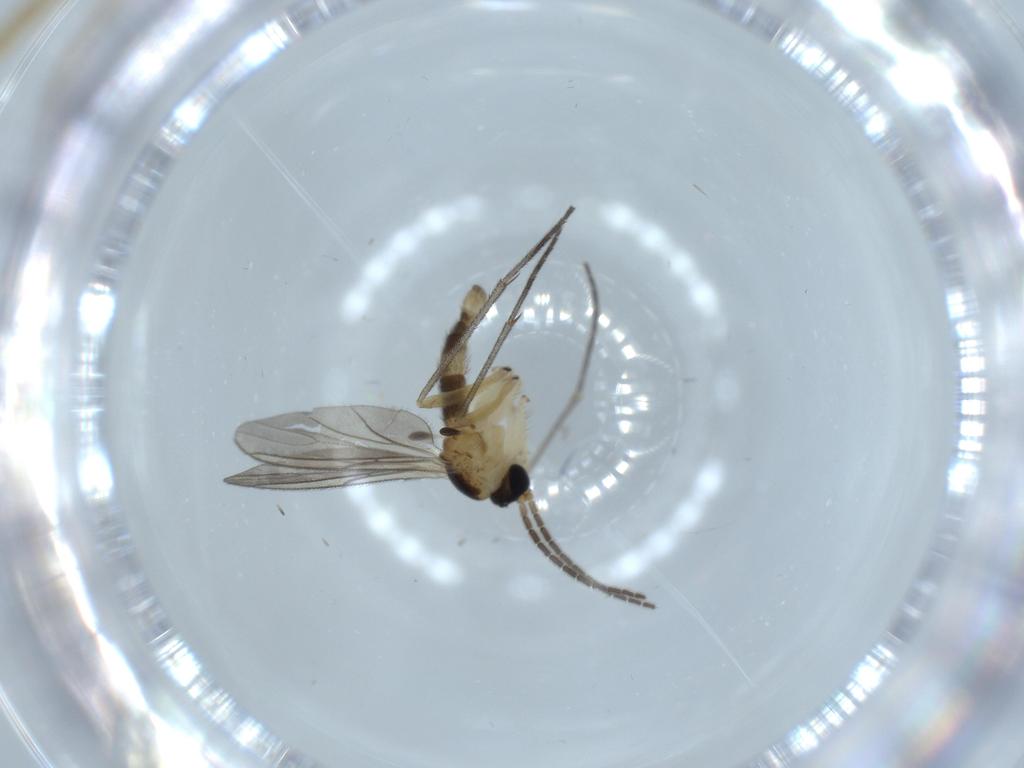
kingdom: Animalia
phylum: Arthropoda
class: Insecta
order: Diptera
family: Sciaridae
